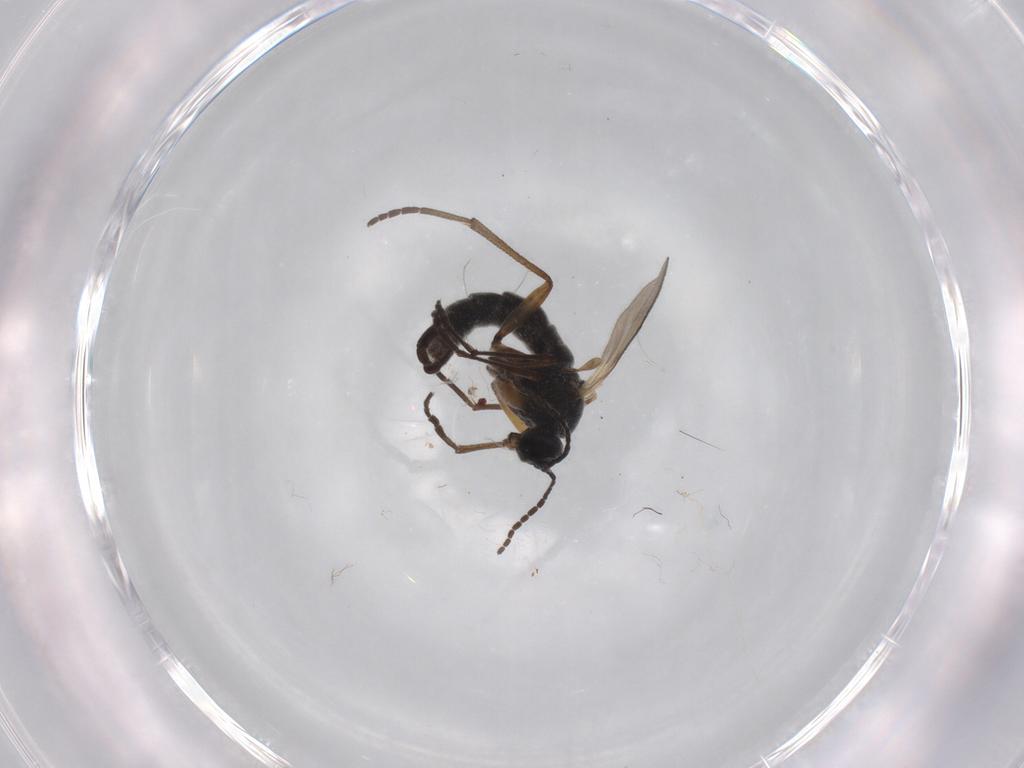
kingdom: Animalia
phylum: Arthropoda
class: Insecta
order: Diptera
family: Sciaridae
